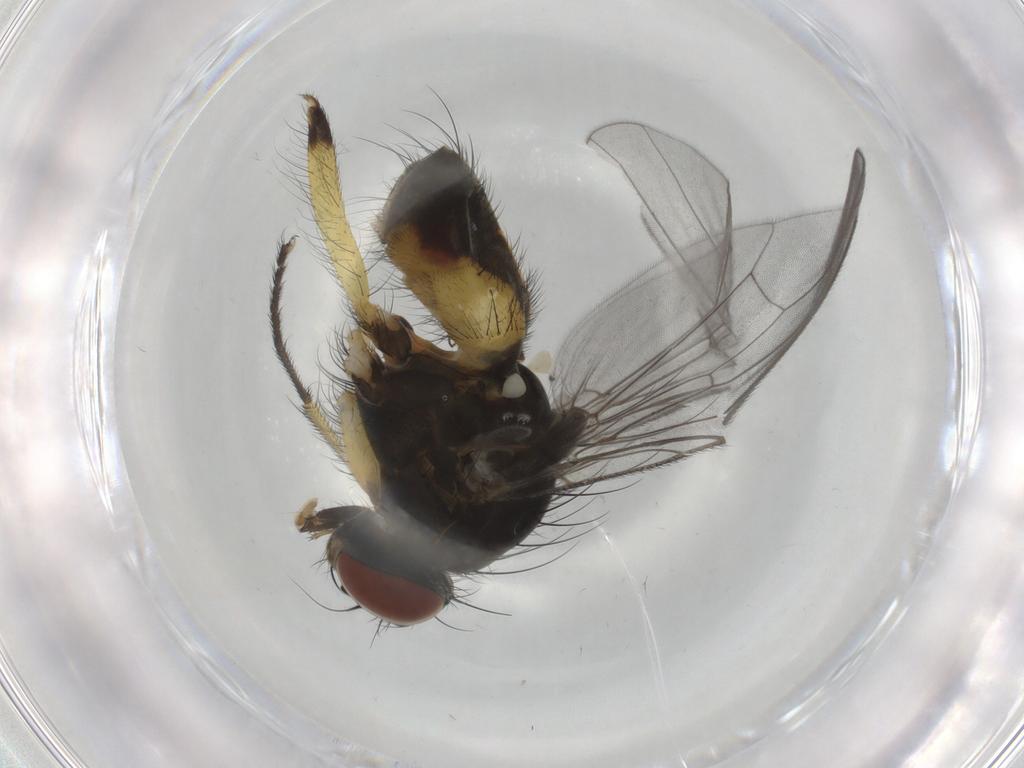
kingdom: Animalia
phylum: Arthropoda
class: Insecta
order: Diptera
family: Muscidae
